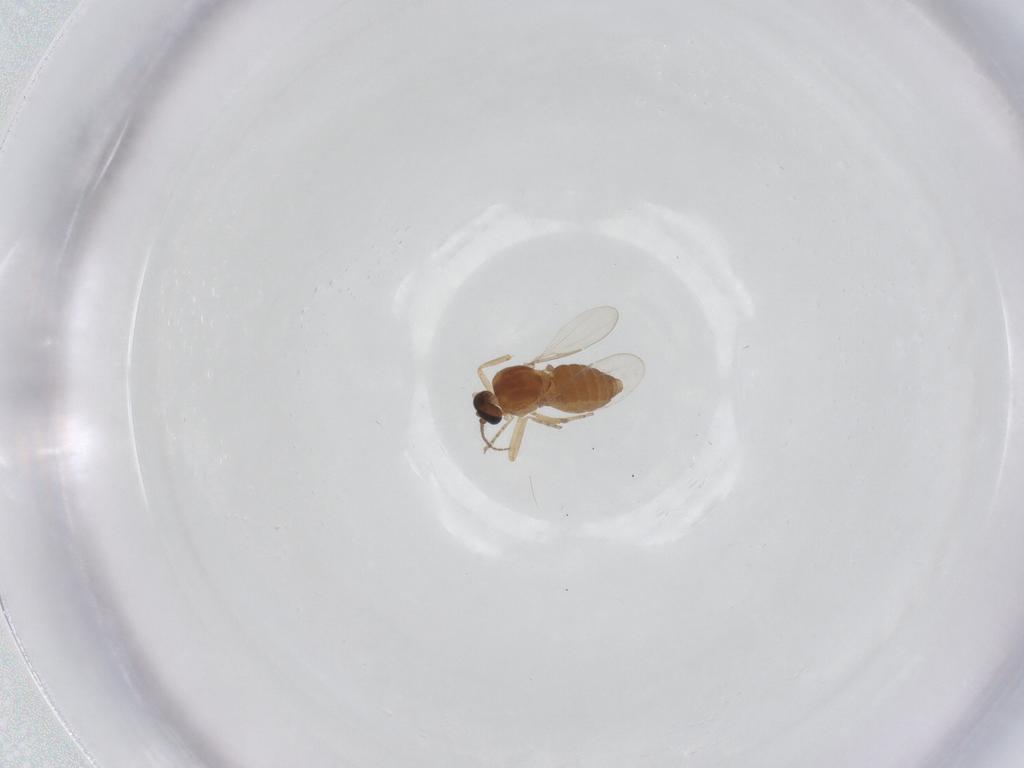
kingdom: Animalia
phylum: Arthropoda
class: Insecta
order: Diptera
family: Ceratopogonidae
